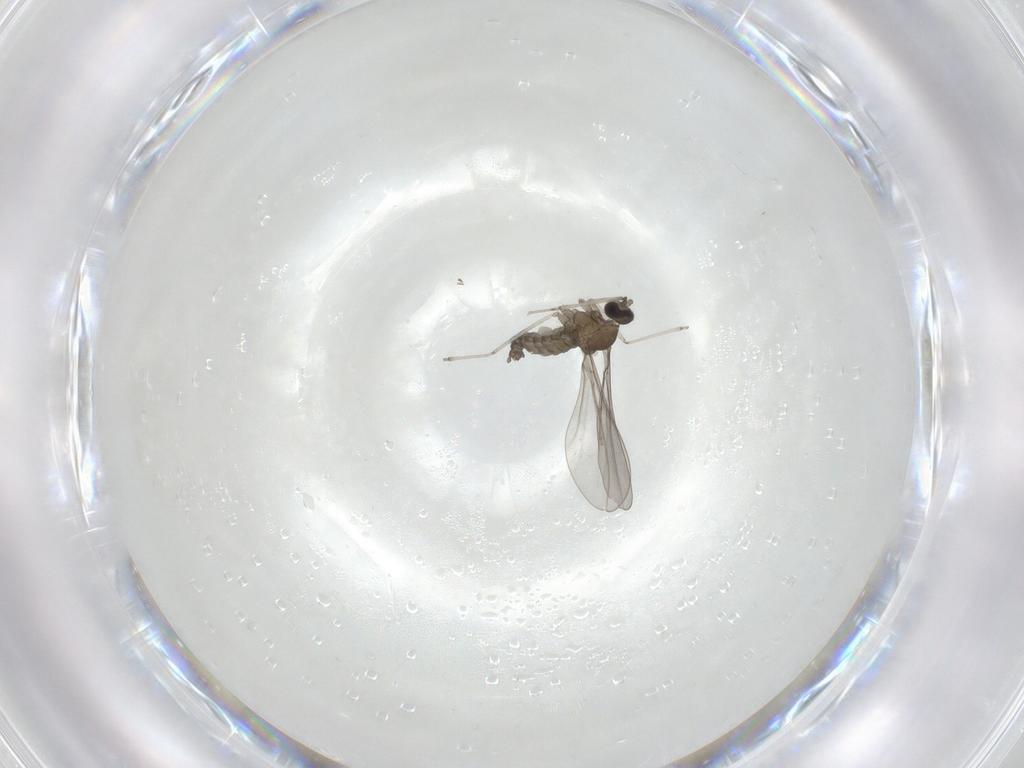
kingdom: Animalia
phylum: Arthropoda
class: Insecta
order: Diptera
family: Cecidomyiidae
